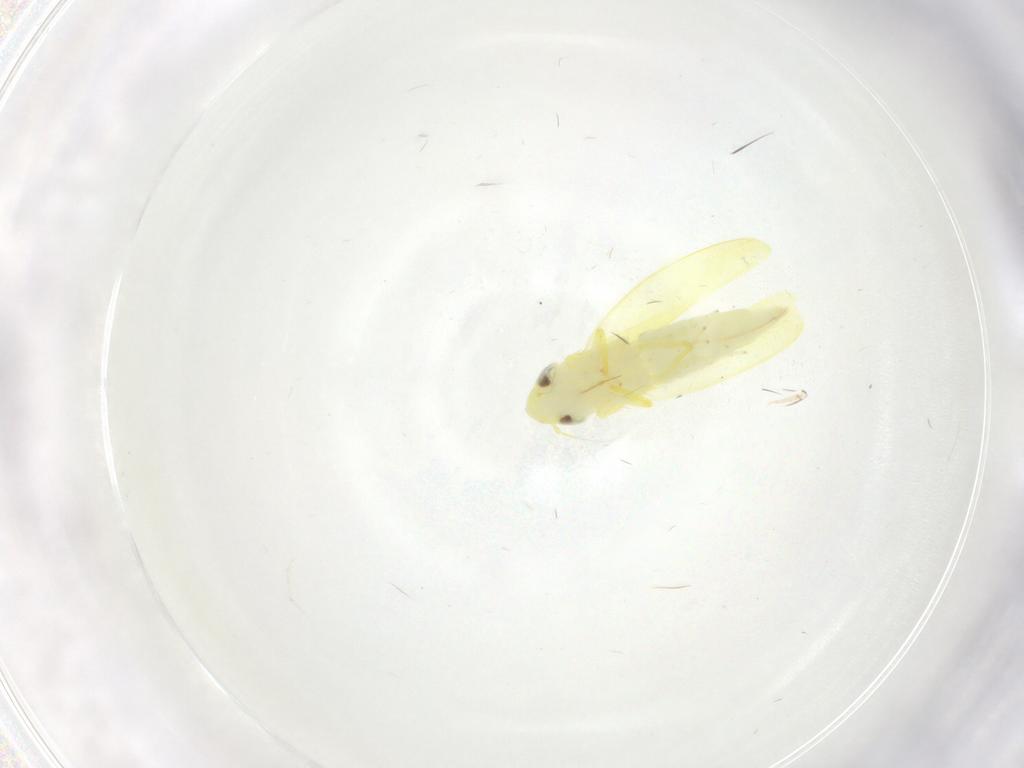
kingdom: Animalia
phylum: Arthropoda
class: Insecta
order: Hemiptera
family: Cicadellidae
